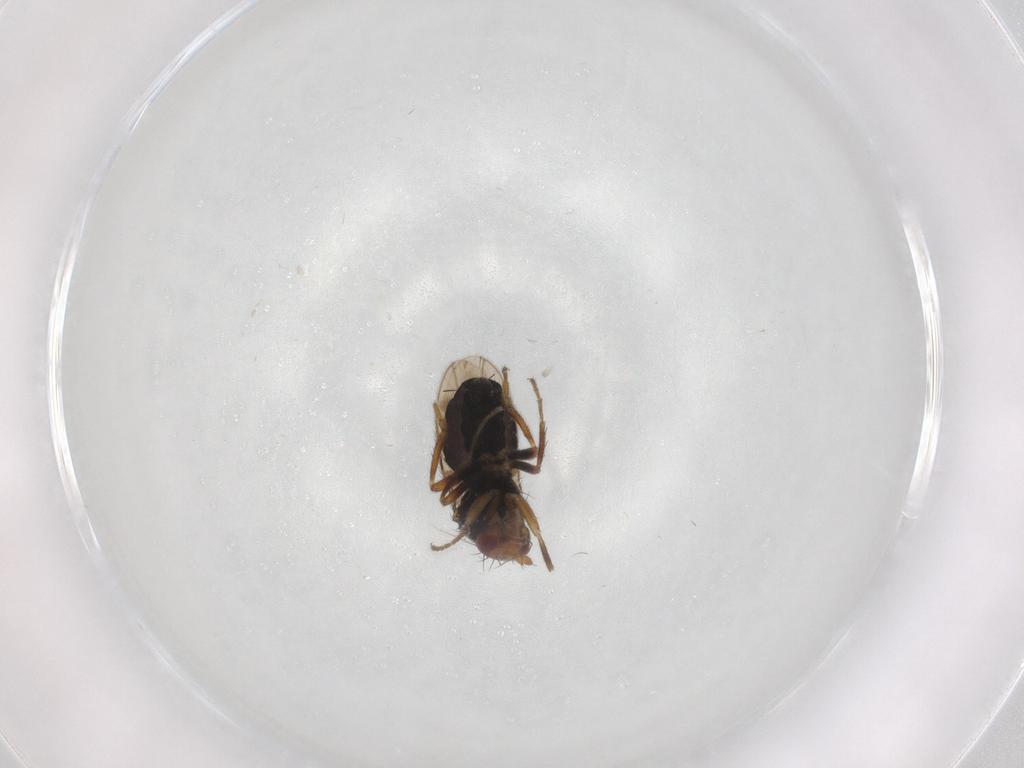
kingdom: Animalia
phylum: Arthropoda
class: Insecta
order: Diptera
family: Sphaeroceridae
